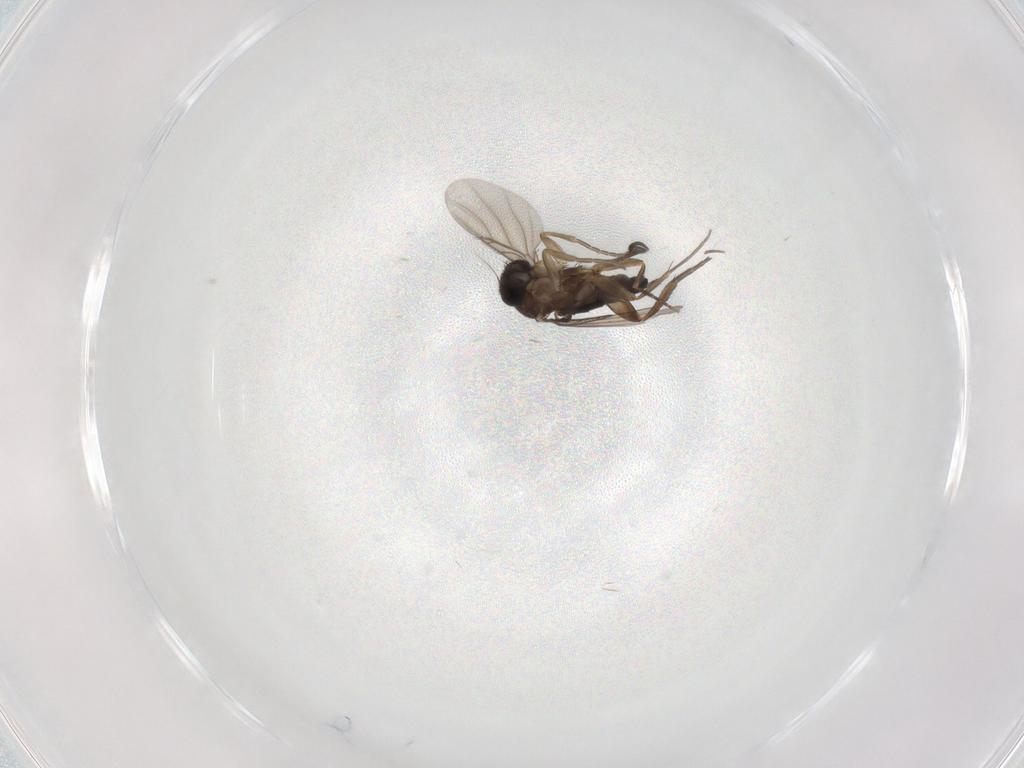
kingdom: Animalia
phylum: Arthropoda
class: Insecta
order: Diptera
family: Phoridae
